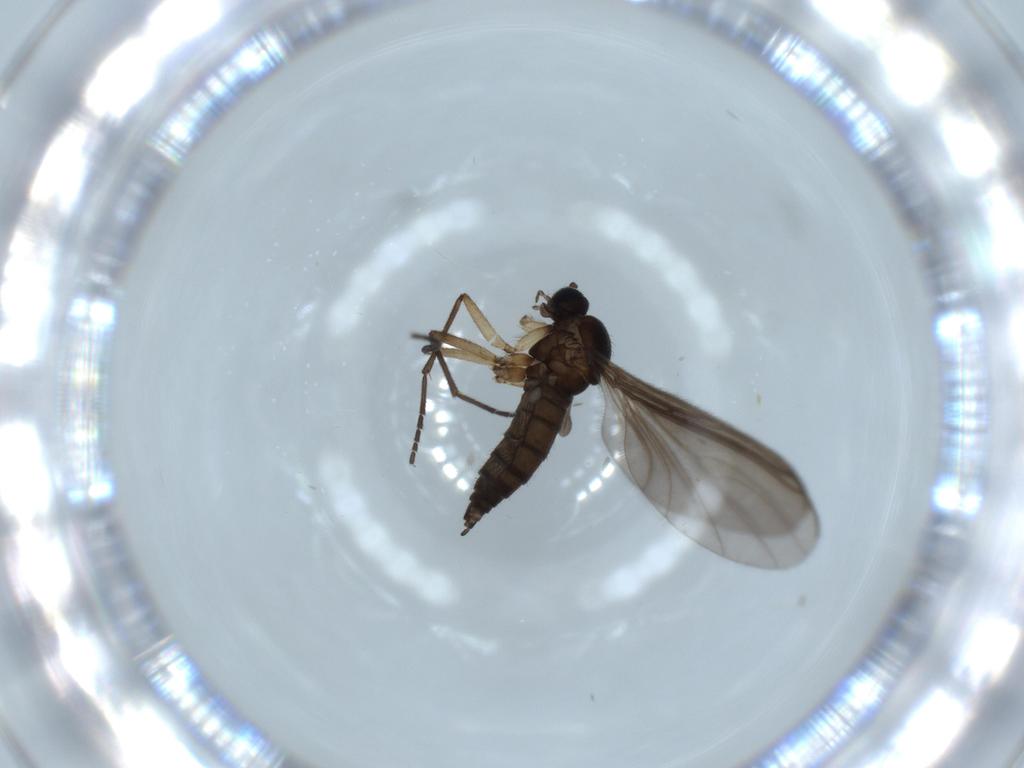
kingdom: Animalia
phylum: Arthropoda
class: Insecta
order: Diptera
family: Sciaridae
